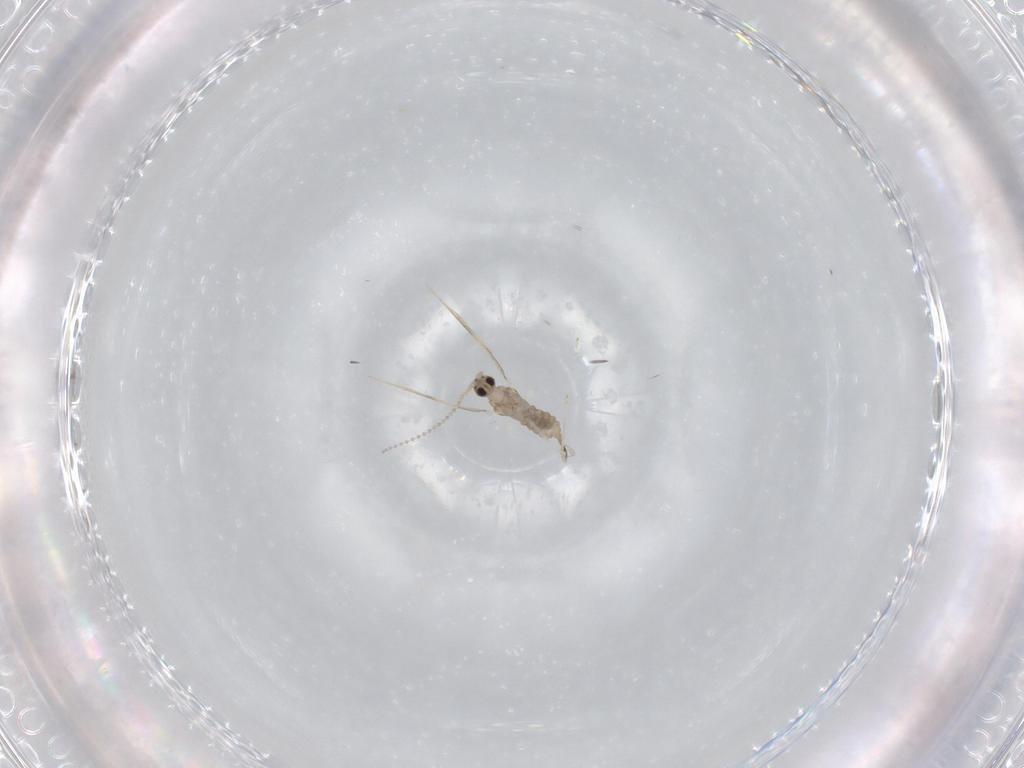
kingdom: Animalia
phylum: Arthropoda
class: Insecta
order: Diptera
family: Cecidomyiidae
